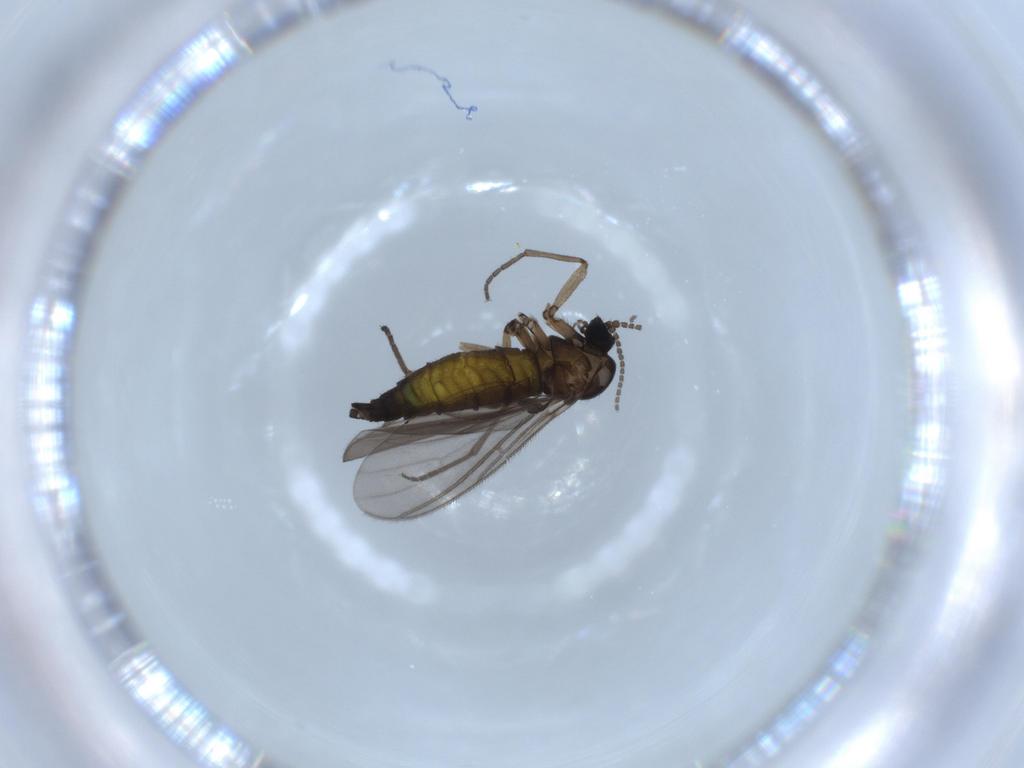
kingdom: Animalia
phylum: Arthropoda
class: Insecta
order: Diptera
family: Sciaridae
